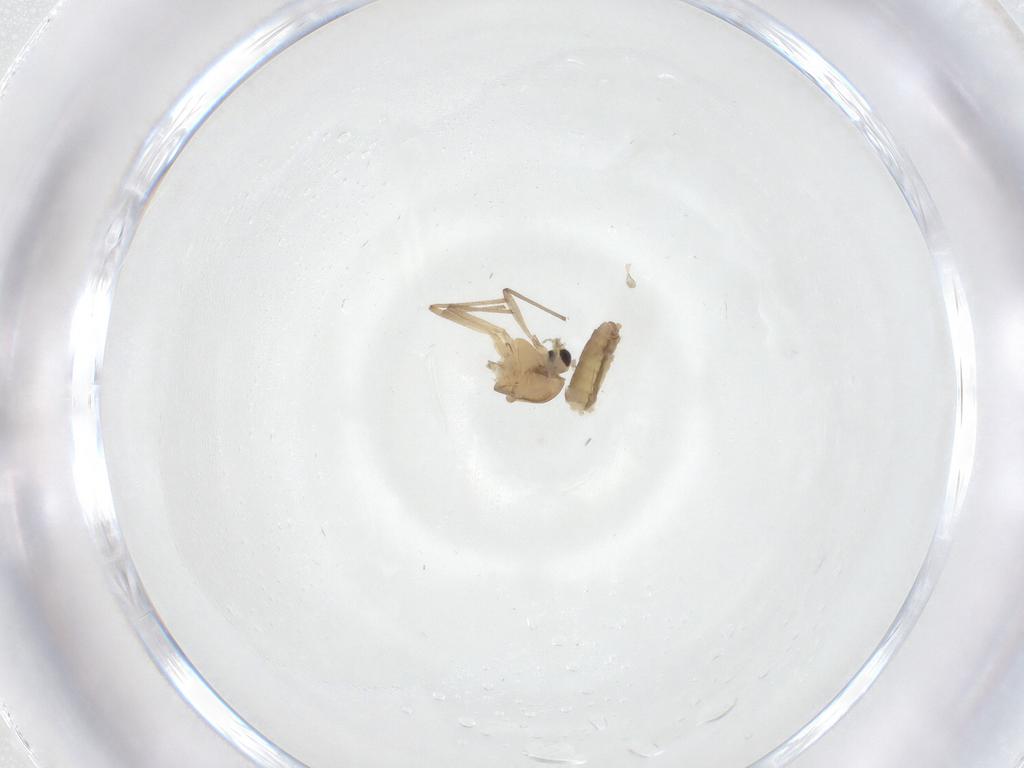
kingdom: Animalia
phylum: Arthropoda
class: Insecta
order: Diptera
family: Chironomidae
